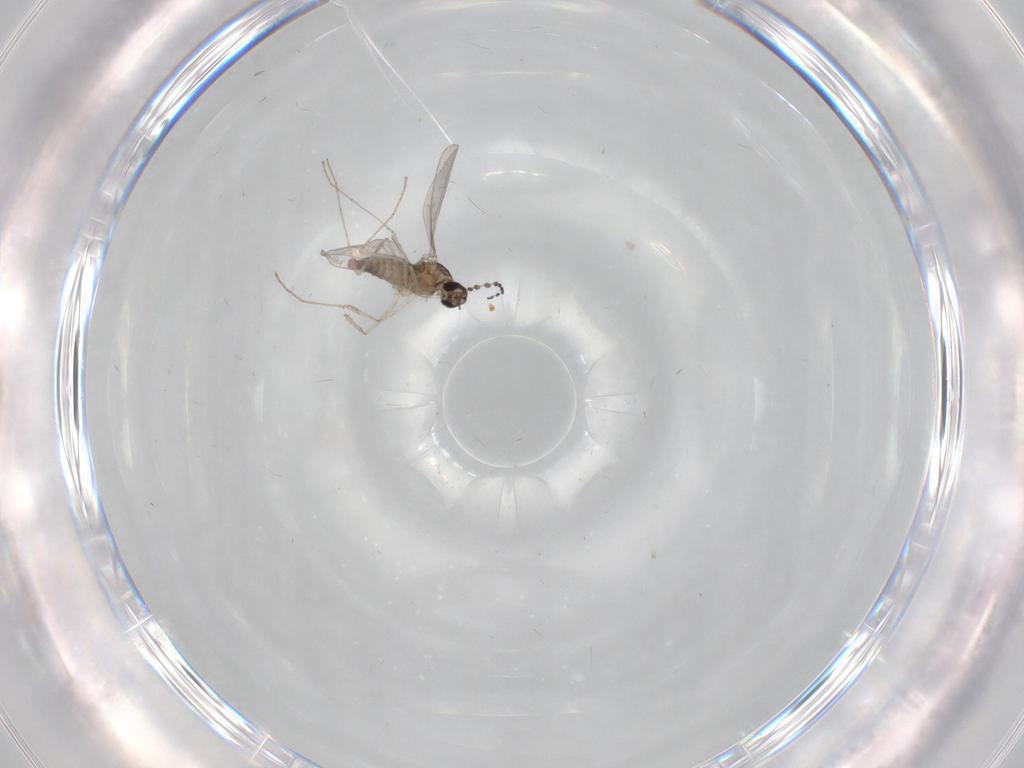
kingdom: Animalia
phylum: Arthropoda
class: Insecta
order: Diptera
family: Cecidomyiidae
